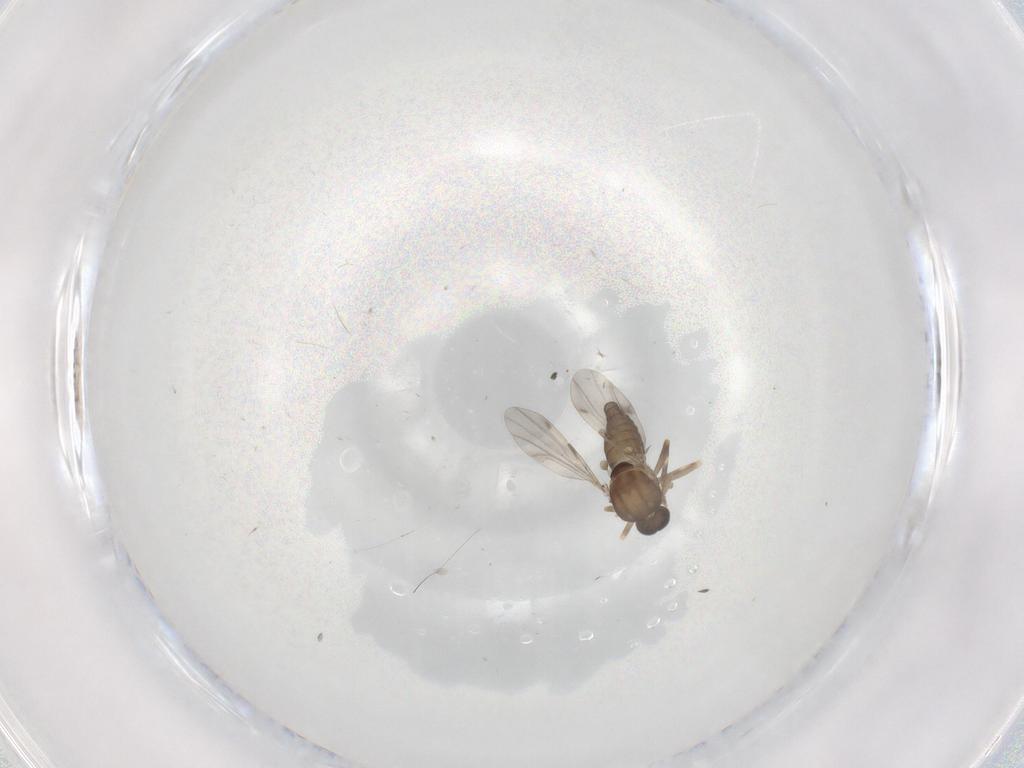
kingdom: Animalia
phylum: Arthropoda
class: Insecta
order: Diptera
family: Ceratopogonidae
